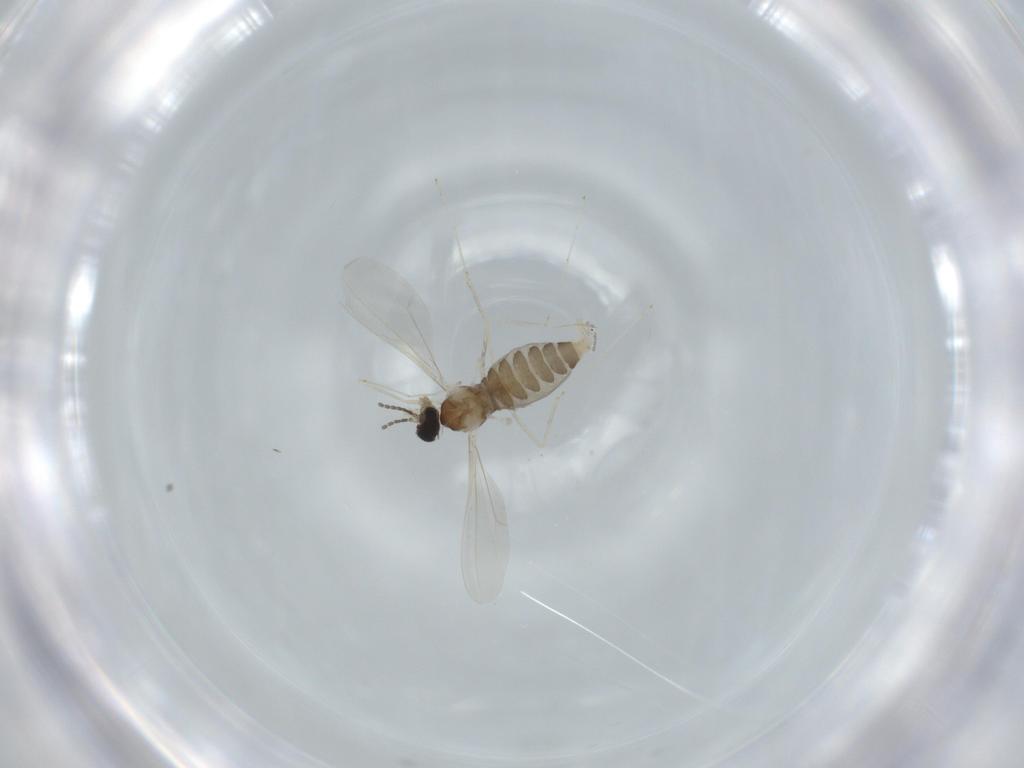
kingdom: Animalia
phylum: Arthropoda
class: Insecta
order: Diptera
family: Cecidomyiidae
